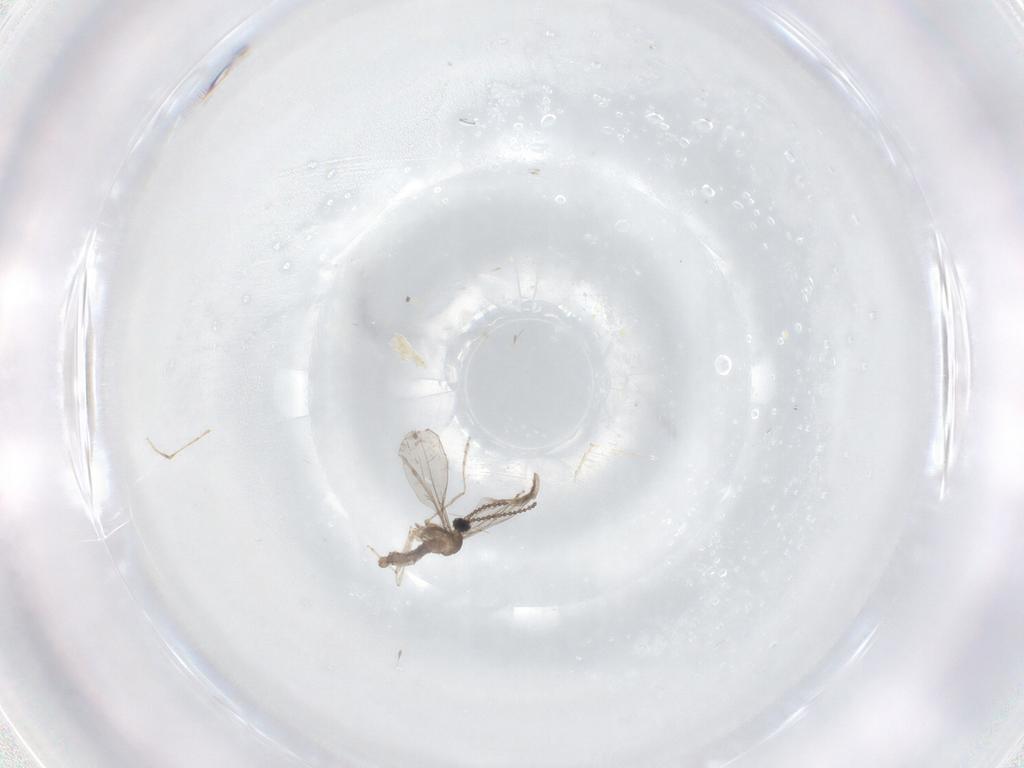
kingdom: Animalia
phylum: Arthropoda
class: Insecta
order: Diptera
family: Cecidomyiidae
